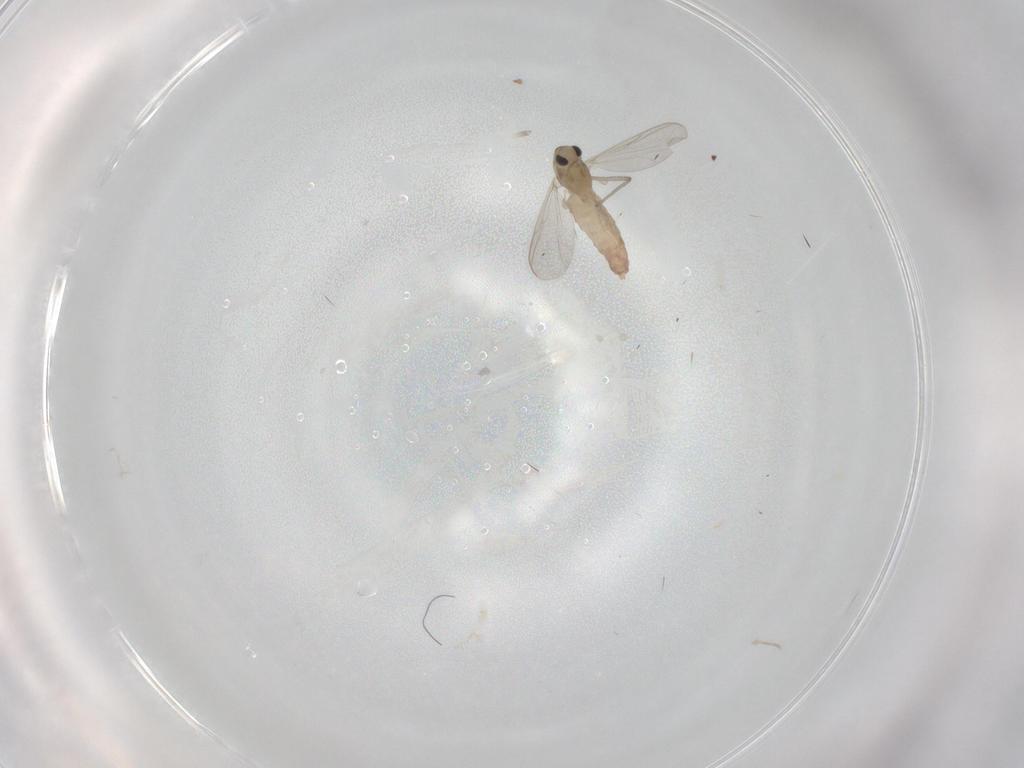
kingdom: Animalia
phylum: Arthropoda
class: Insecta
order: Diptera
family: Chironomidae
